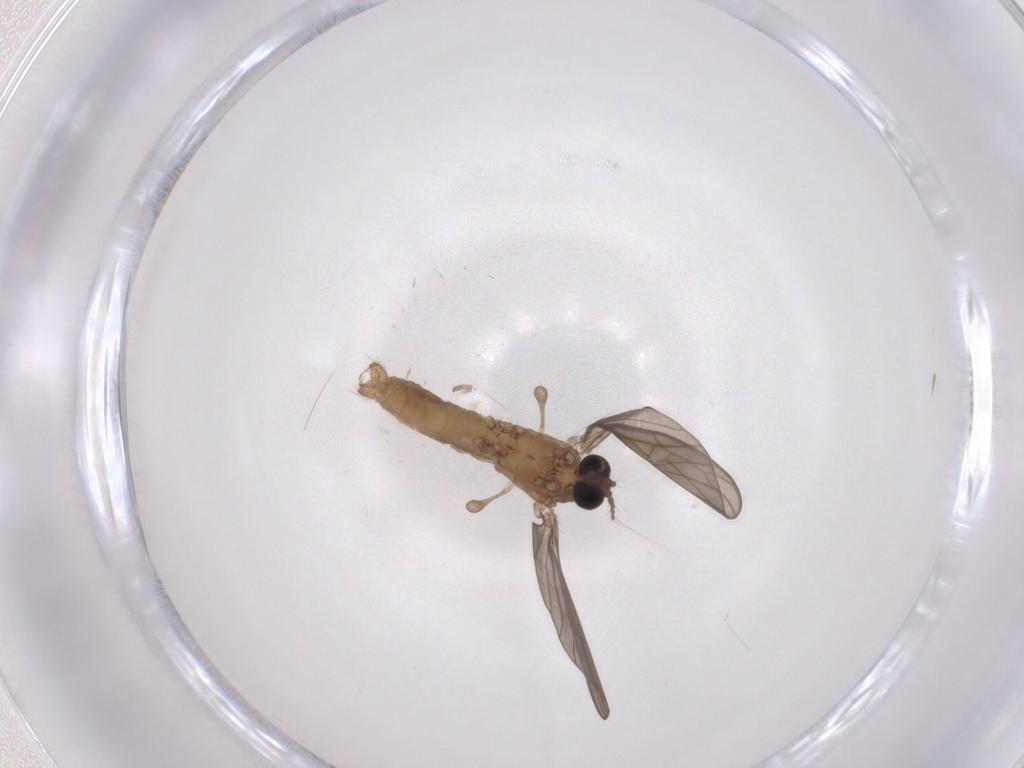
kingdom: Animalia
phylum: Arthropoda
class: Insecta
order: Diptera
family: Limoniidae
